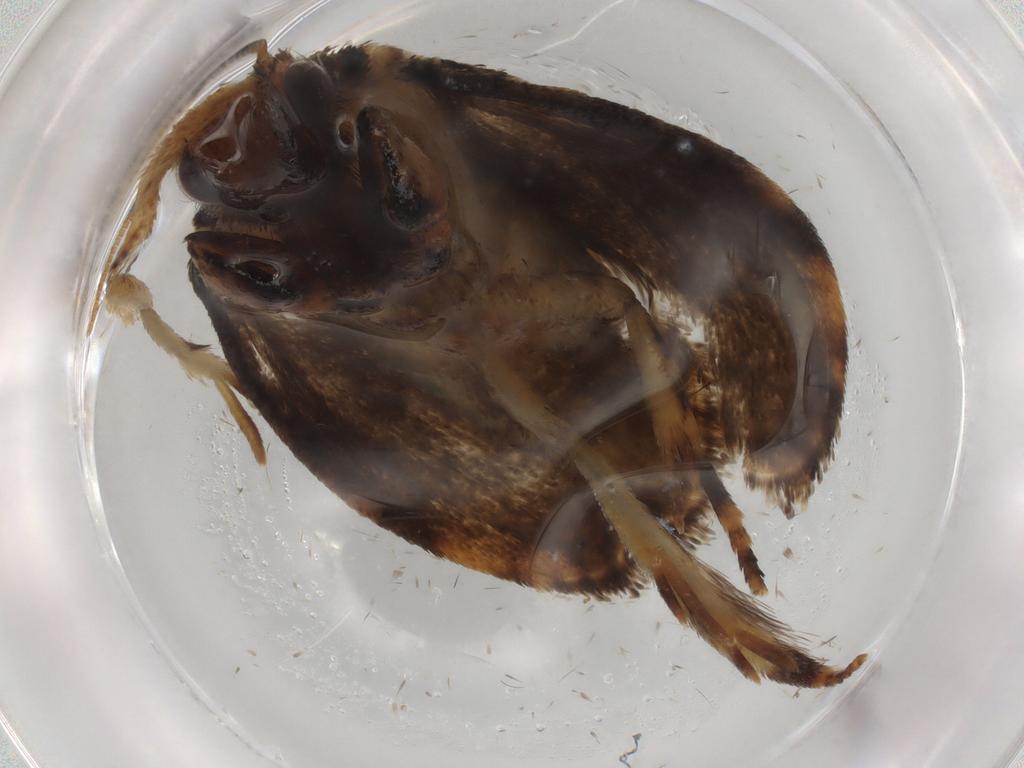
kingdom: Animalia
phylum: Arthropoda
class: Insecta
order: Lepidoptera
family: Tineidae
